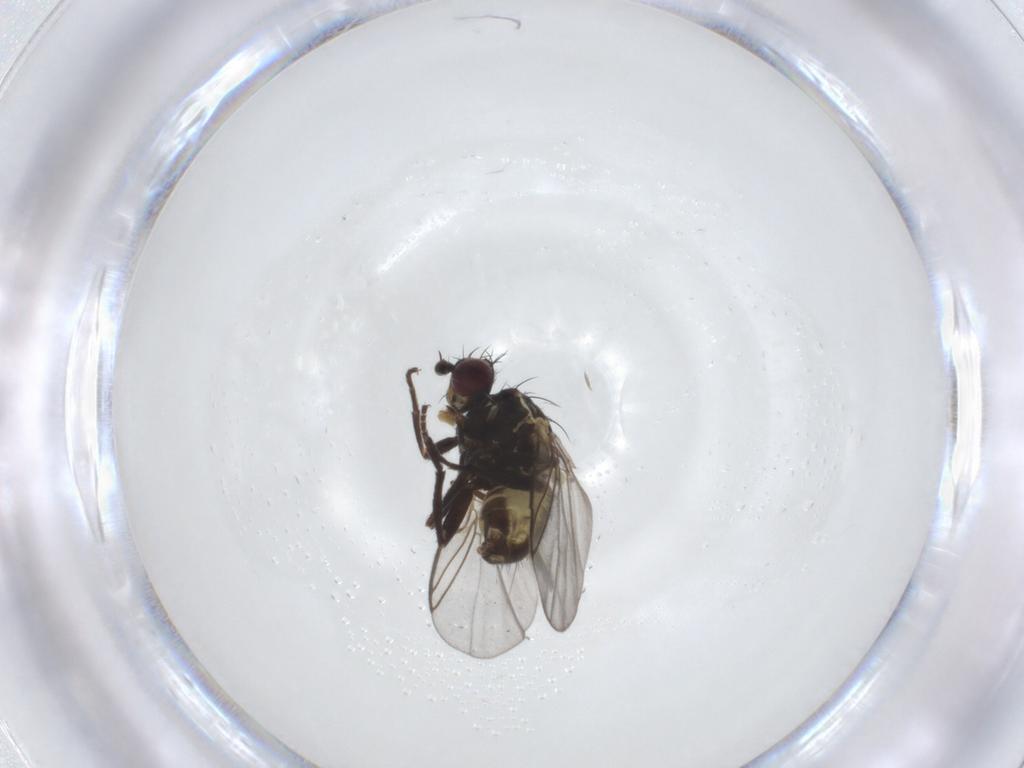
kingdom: Animalia
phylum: Arthropoda
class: Insecta
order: Diptera
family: Mycetophilidae
